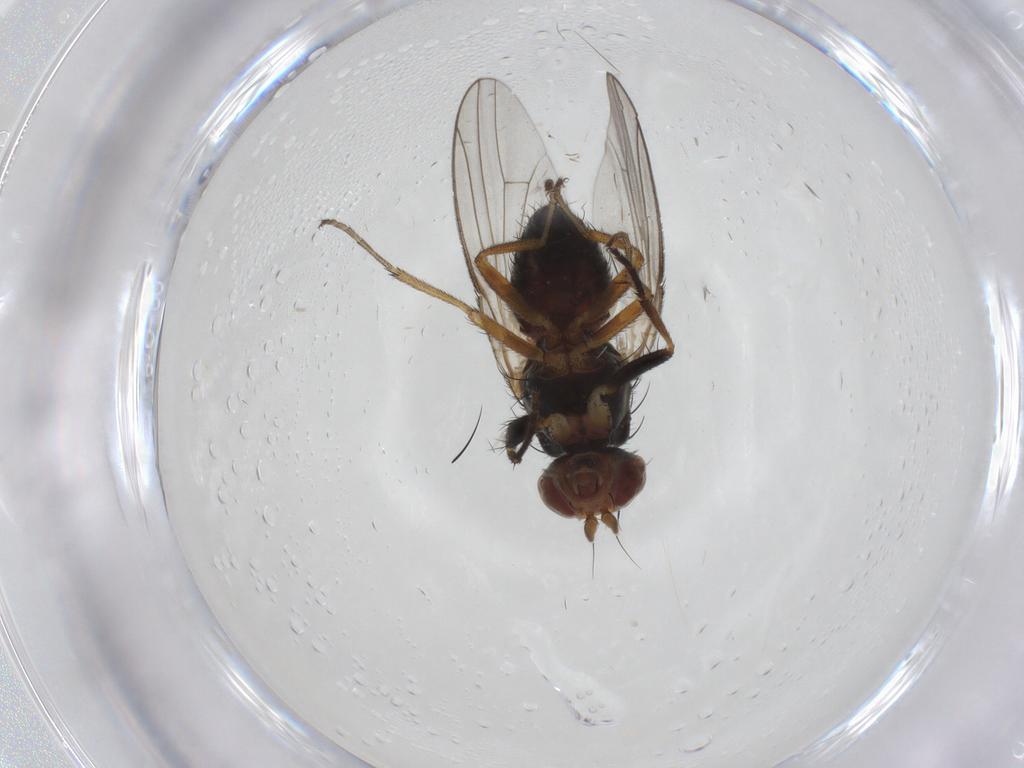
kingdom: Animalia
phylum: Arthropoda
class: Insecta
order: Diptera
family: Heleomyzidae
